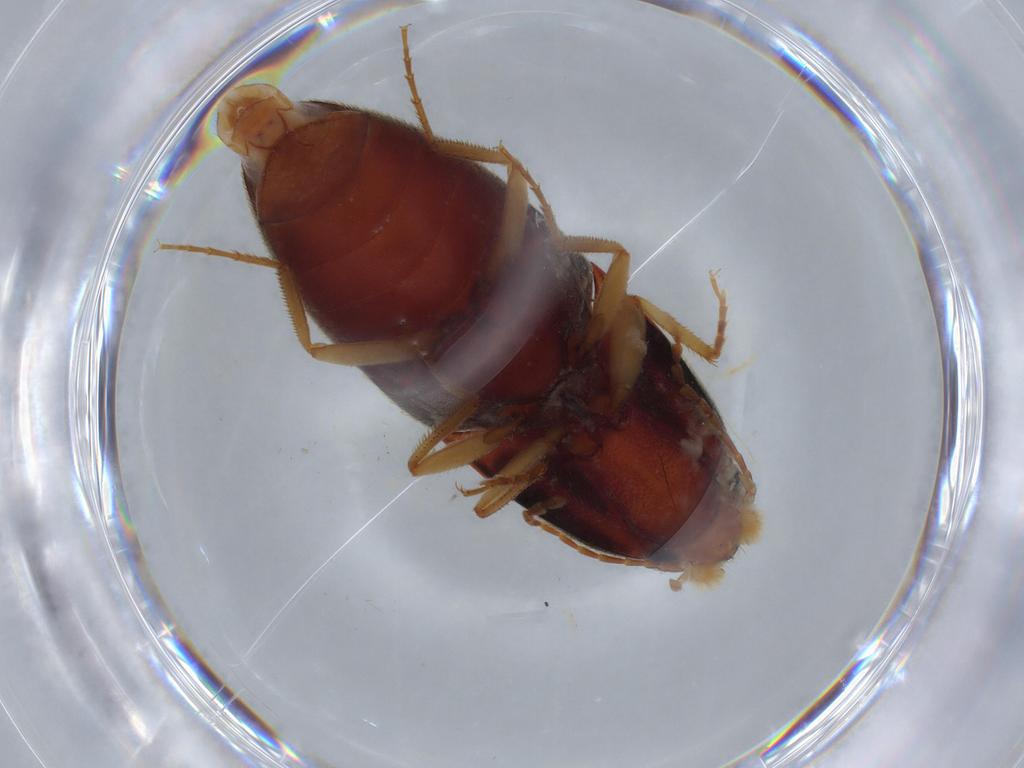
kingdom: Animalia
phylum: Arthropoda
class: Insecta
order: Coleoptera
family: Elateridae
